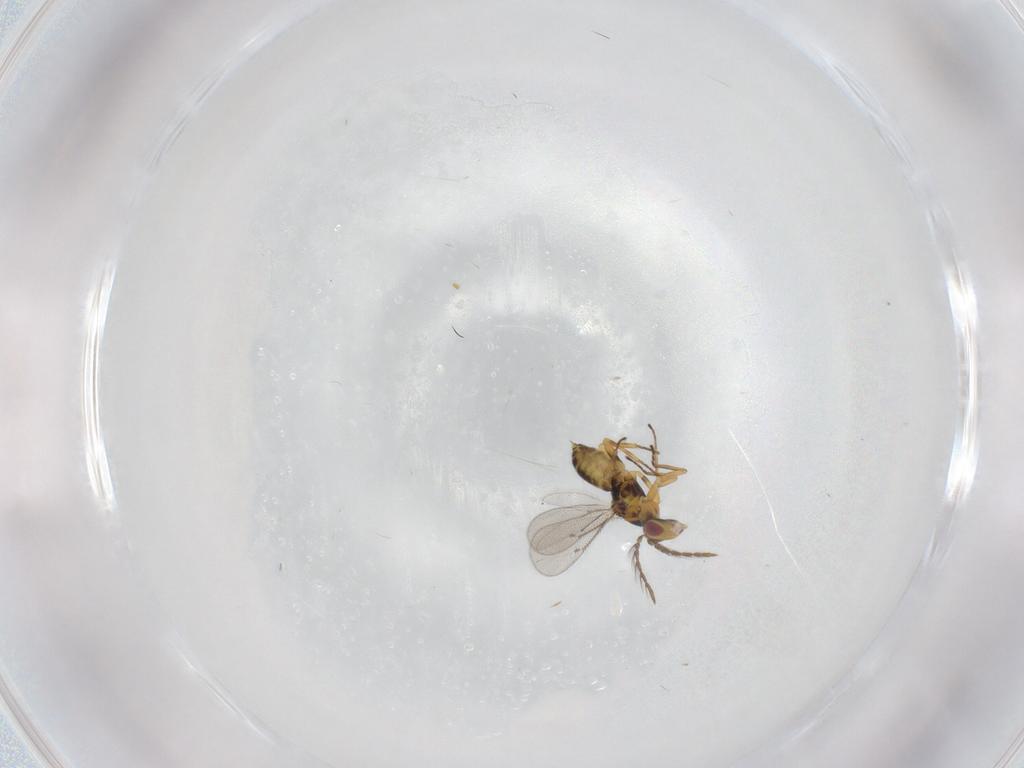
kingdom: Animalia
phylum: Arthropoda
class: Insecta
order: Hymenoptera
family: Eulophidae
